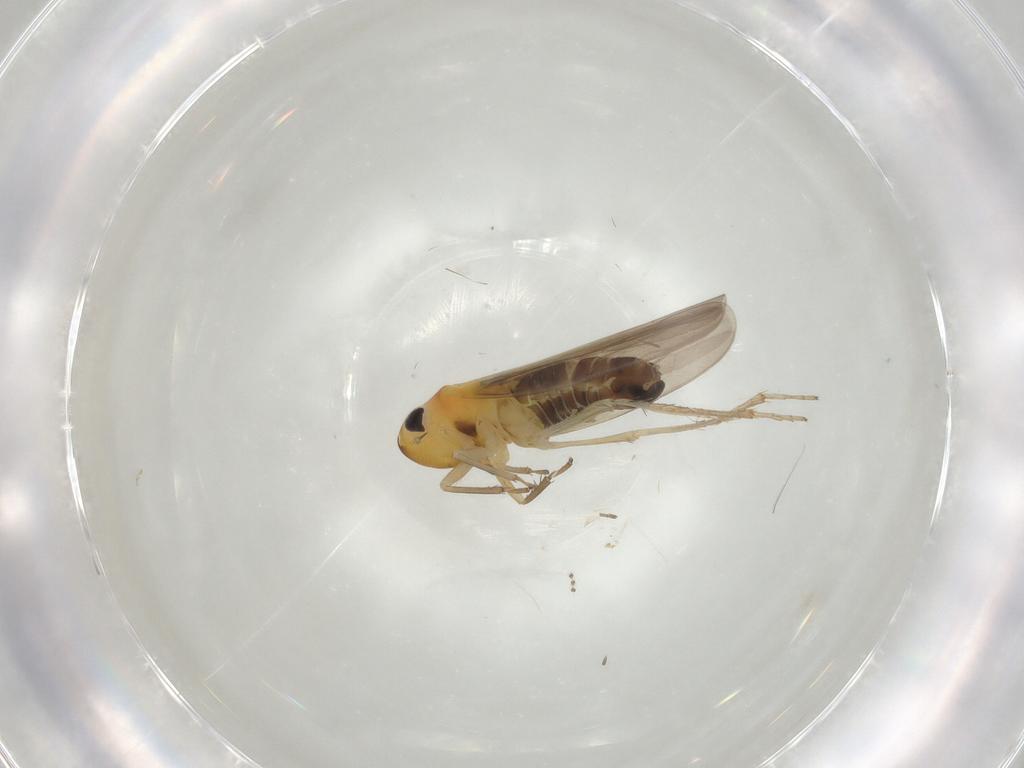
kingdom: Animalia
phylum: Arthropoda
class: Insecta
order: Hemiptera
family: Cicadellidae
